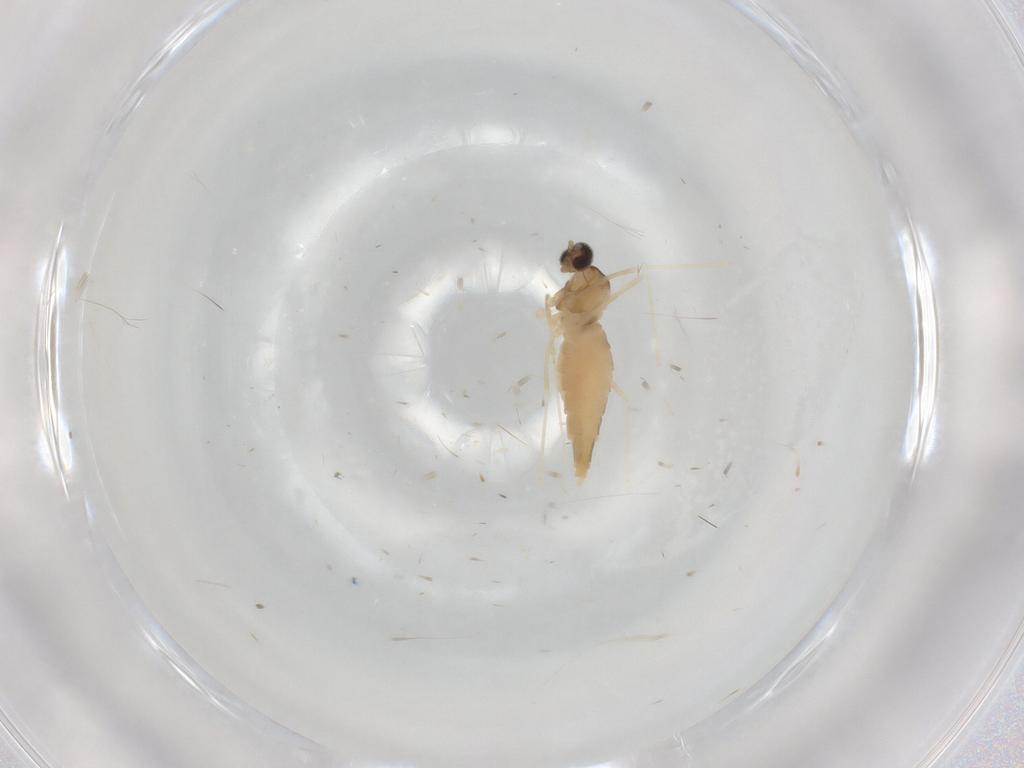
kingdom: Animalia
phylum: Arthropoda
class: Insecta
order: Diptera
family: Cecidomyiidae
